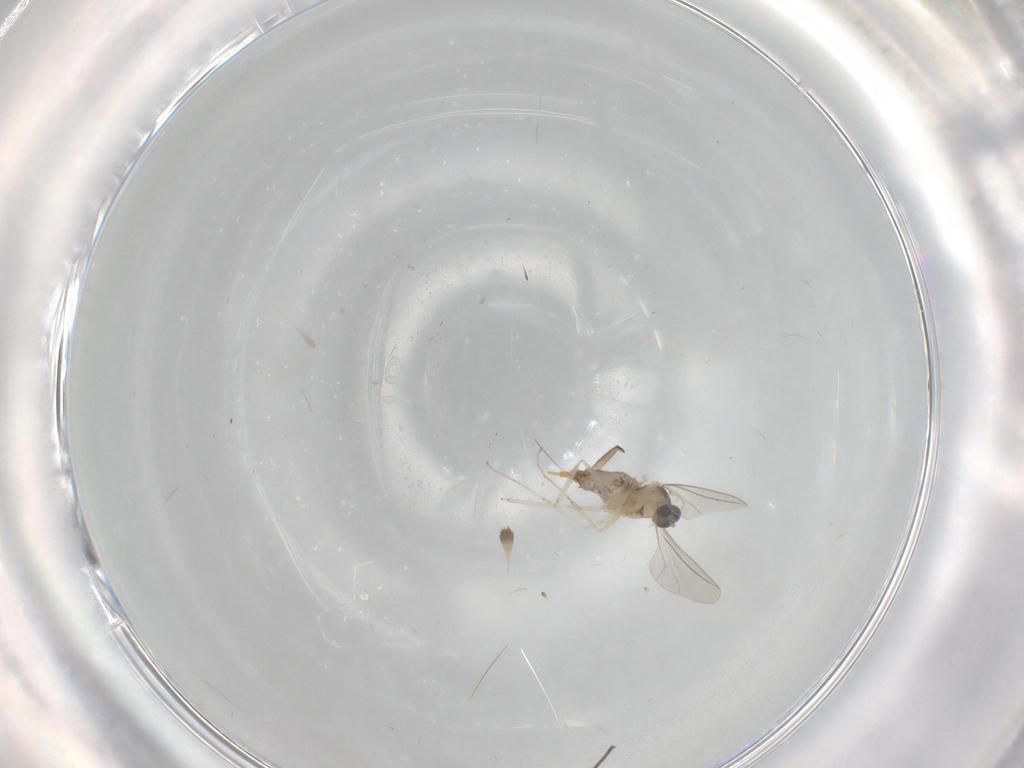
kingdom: Animalia
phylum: Arthropoda
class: Insecta
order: Diptera
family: Sciaridae
